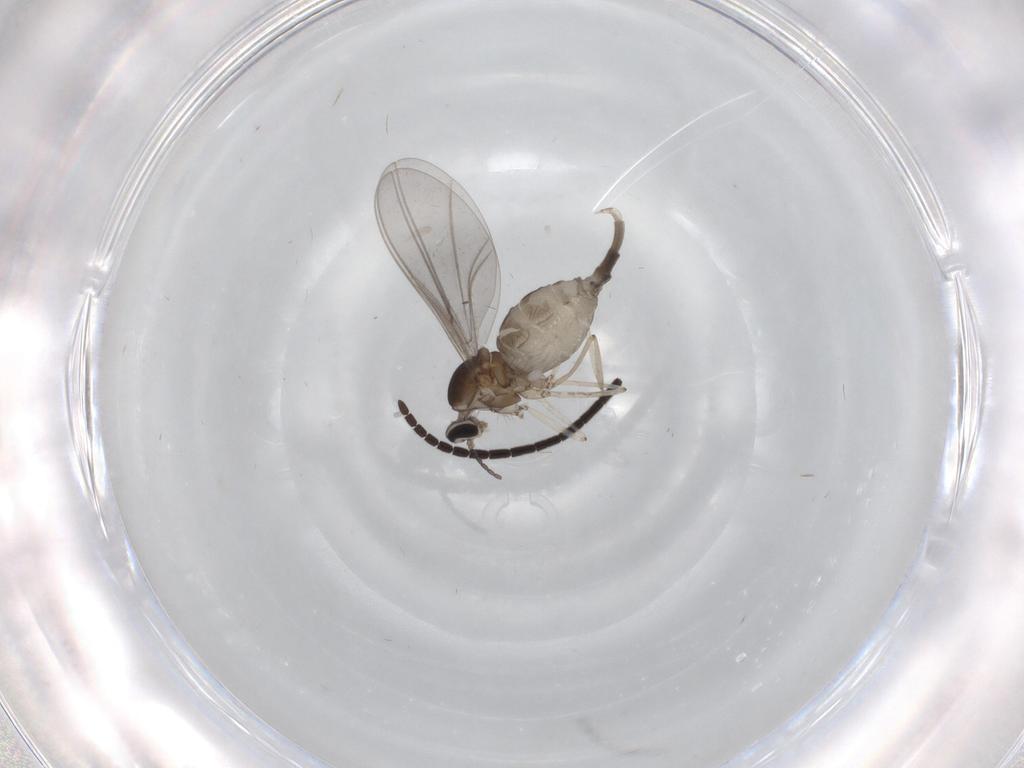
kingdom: Animalia
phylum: Arthropoda
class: Insecta
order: Diptera
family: Cecidomyiidae
